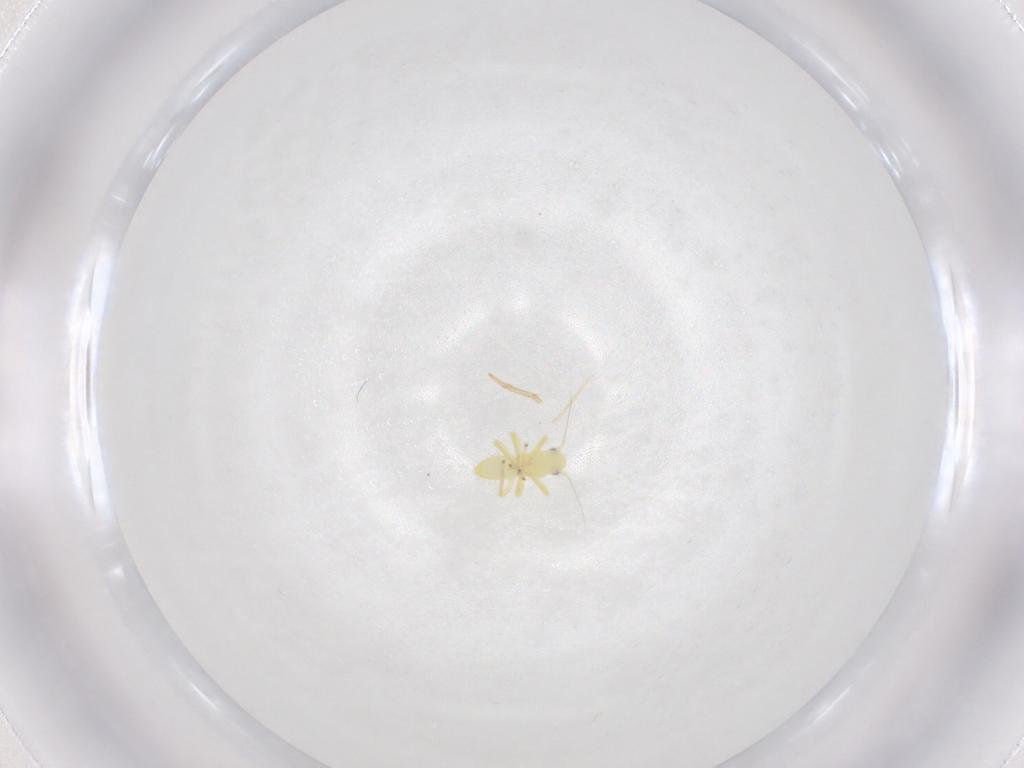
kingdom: Animalia
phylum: Arthropoda
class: Insecta
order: Hemiptera
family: Cicadellidae
